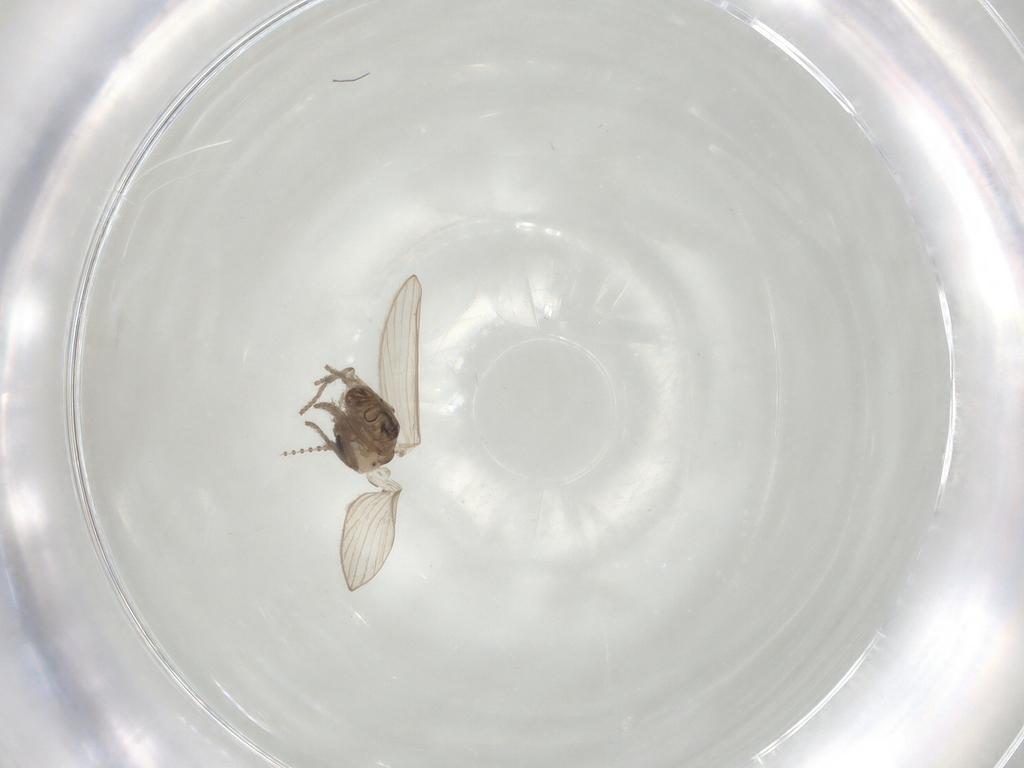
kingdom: Animalia
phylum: Arthropoda
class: Insecta
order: Diptera
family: Psychodidae
